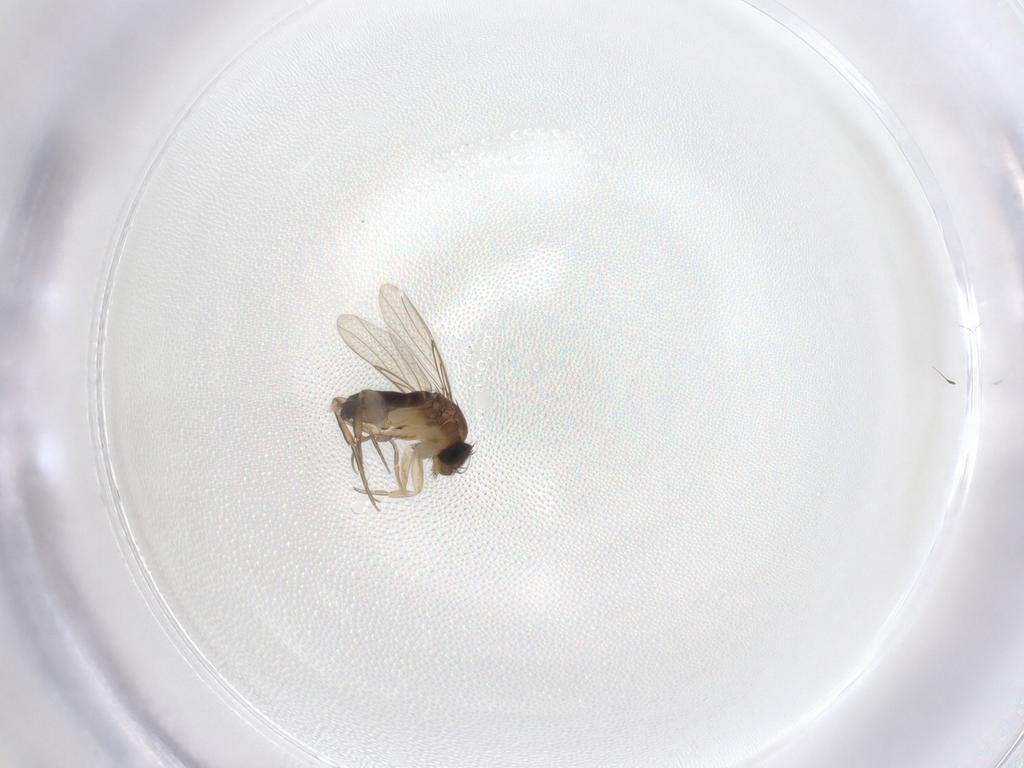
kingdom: Animalia
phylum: Arthropoda
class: Insecta
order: Diptera
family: Phoridae
